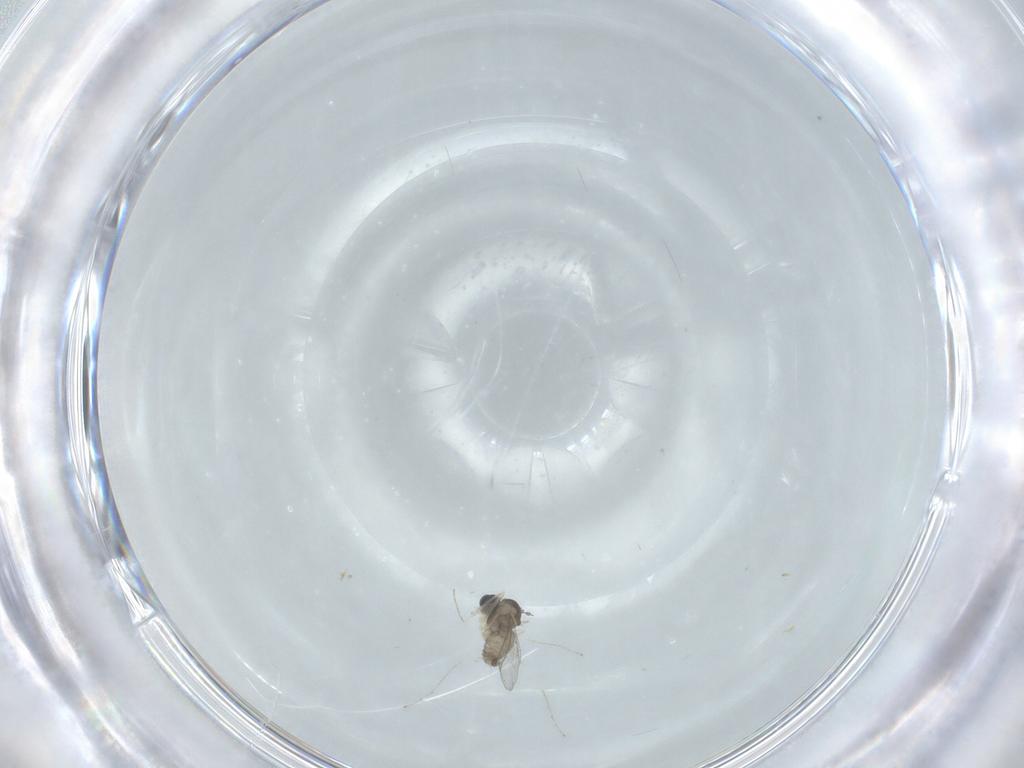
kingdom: Animalia
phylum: Arthropoda
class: Insecta
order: Diptera
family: Cecidomyiidae
